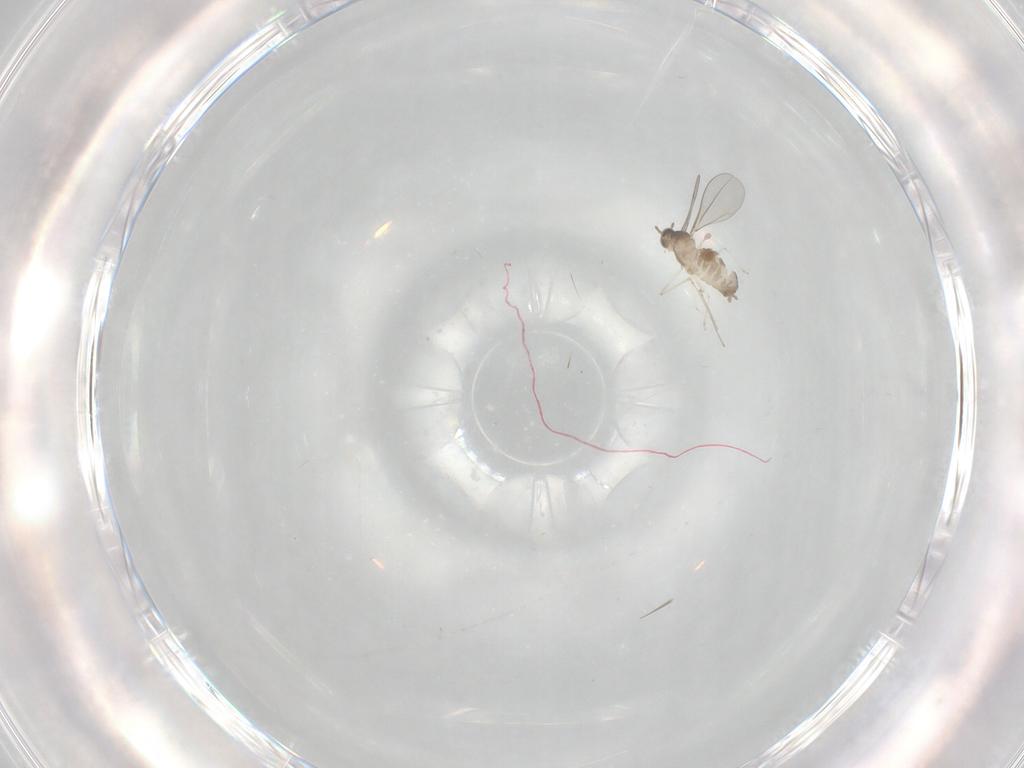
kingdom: Animalia
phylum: Arthropoda
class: Insecta
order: Diptera
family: Cecidomyiidae
